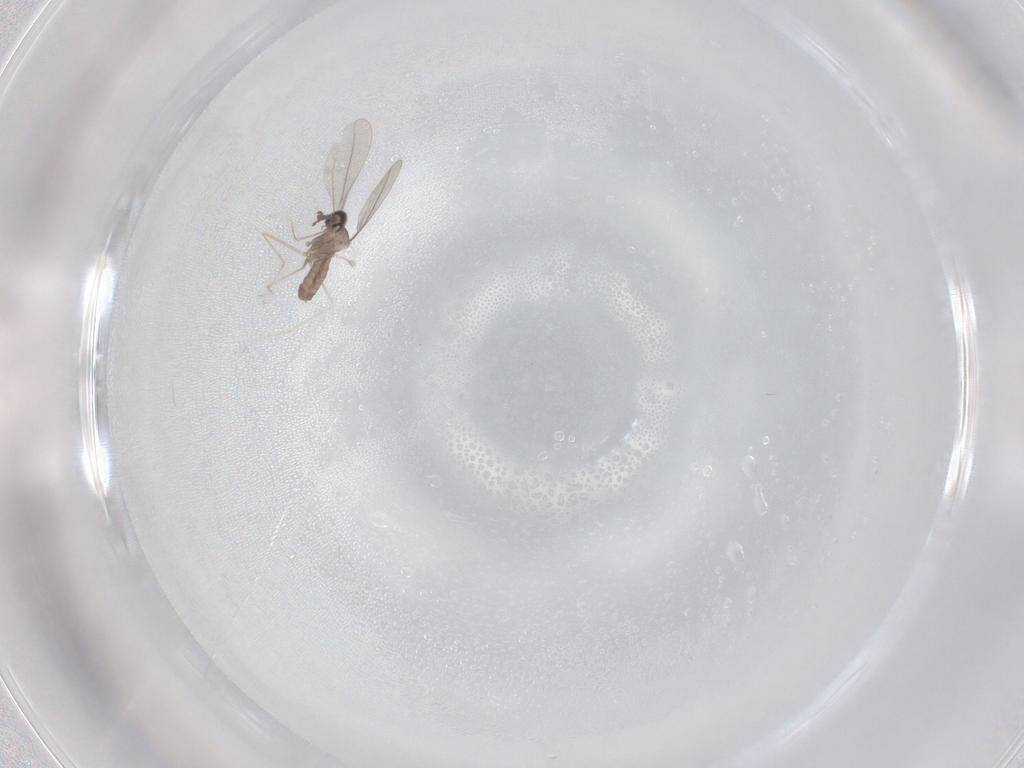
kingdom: Animalia
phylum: Arthropoda
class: Insecta
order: Diptera
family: Cecidomyiidae
